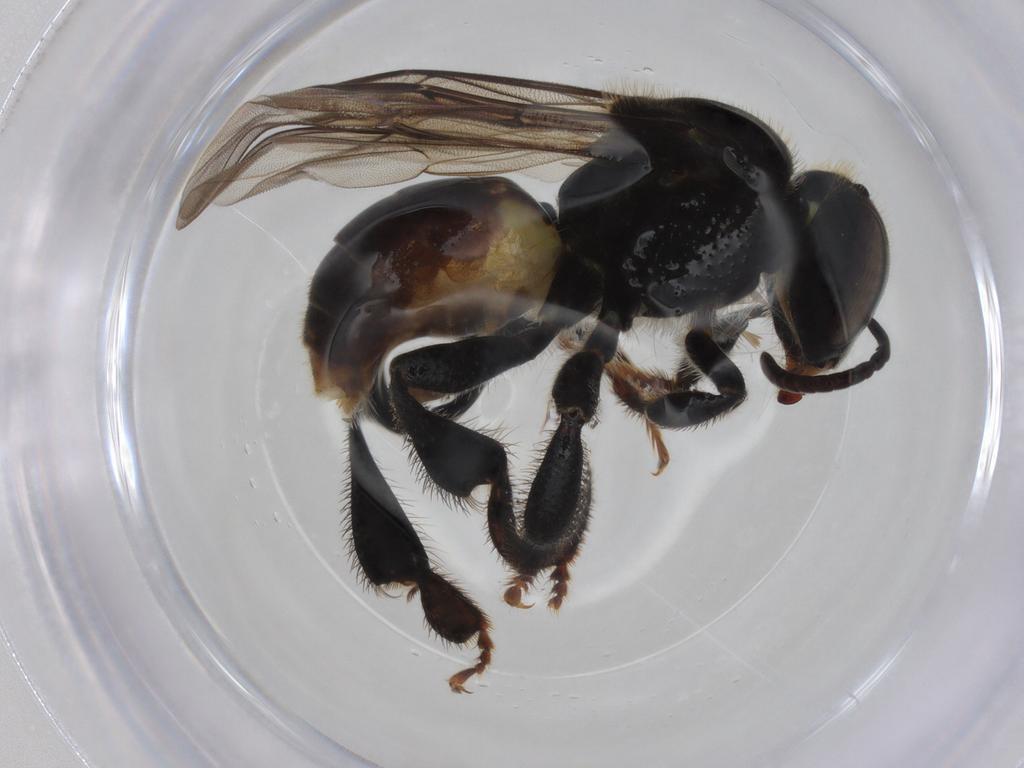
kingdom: Animalia
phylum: Arthropoda
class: Insecta
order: Hymenoptera
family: Apidae
